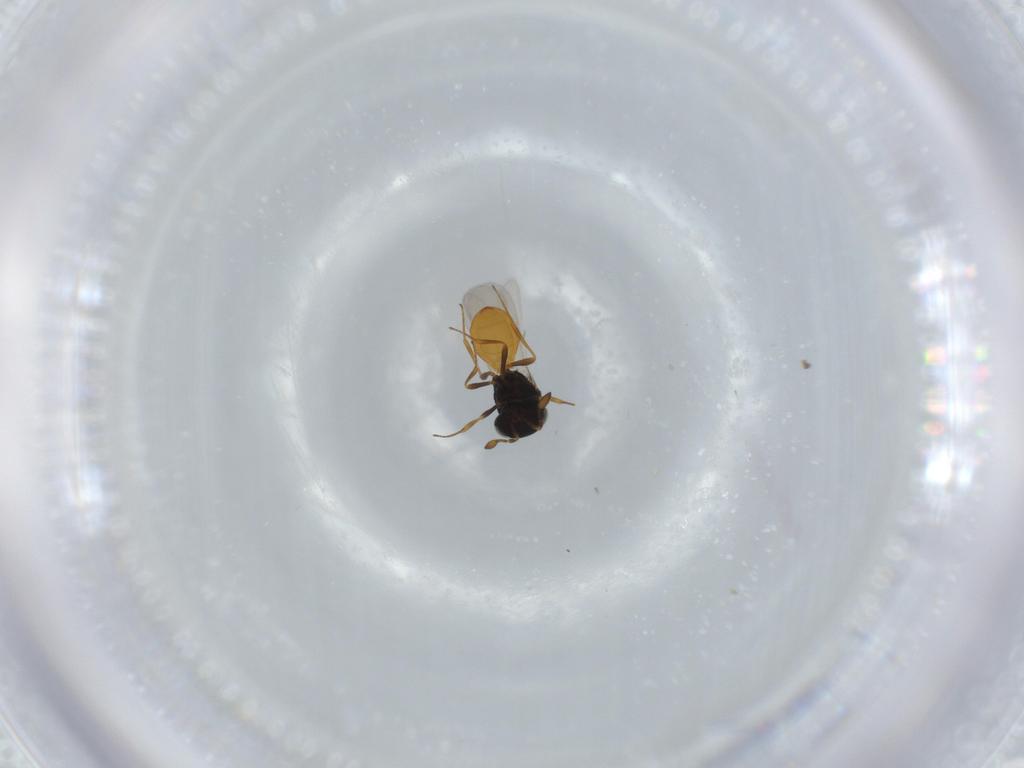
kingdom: Animalia
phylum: Arthropoda
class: Insecta
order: Hymenoptera
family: Scelionidae
